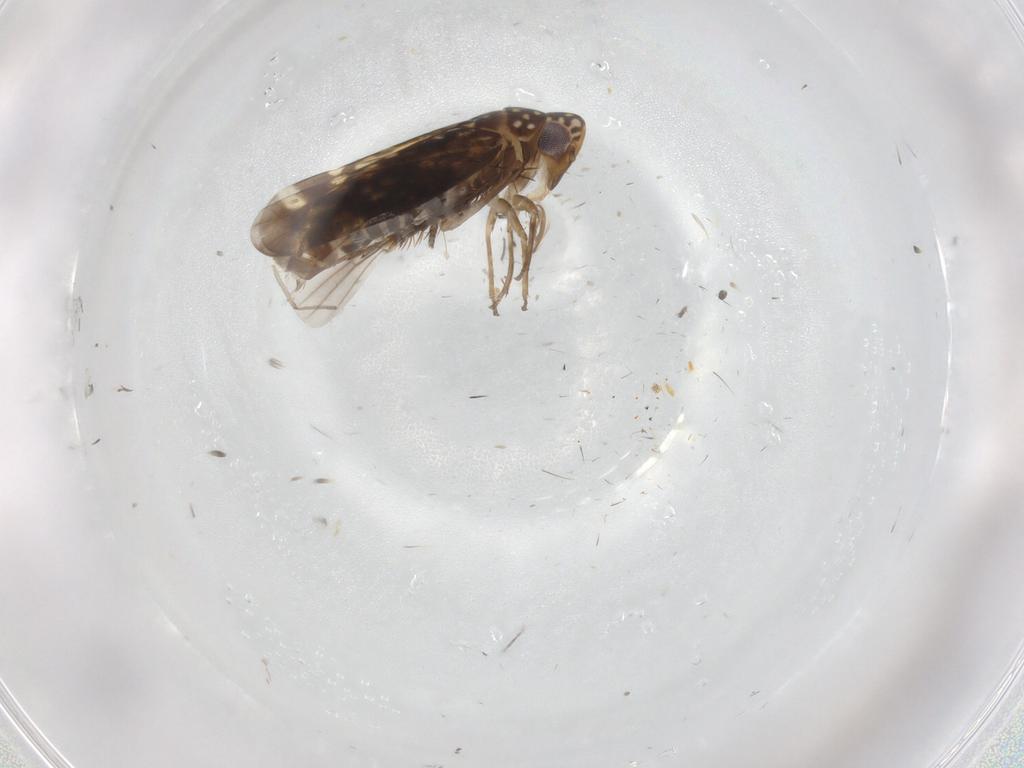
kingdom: Animalia
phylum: Arthropoda
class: Insecta
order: Hemiptera
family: Cicadellidae
